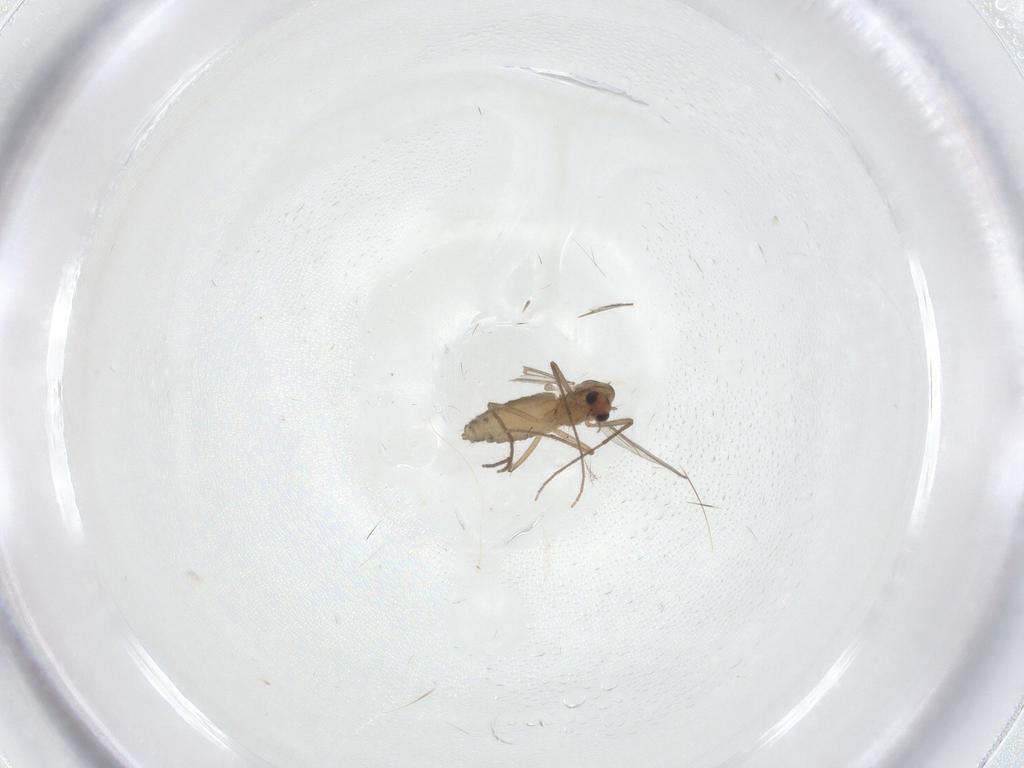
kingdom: Animalia
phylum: Arthropoda
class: Insecta
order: Diptera
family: Chironomidae
